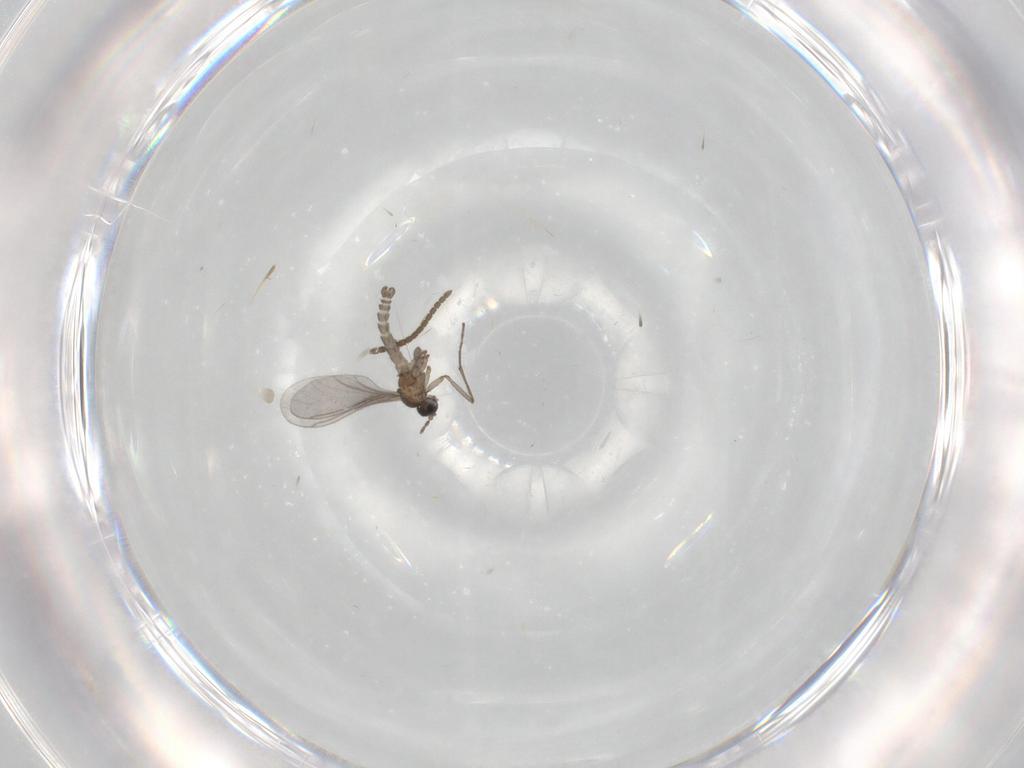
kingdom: Animalia
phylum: Arthropoda
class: Insecta
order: Diptera
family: Sciaridae
